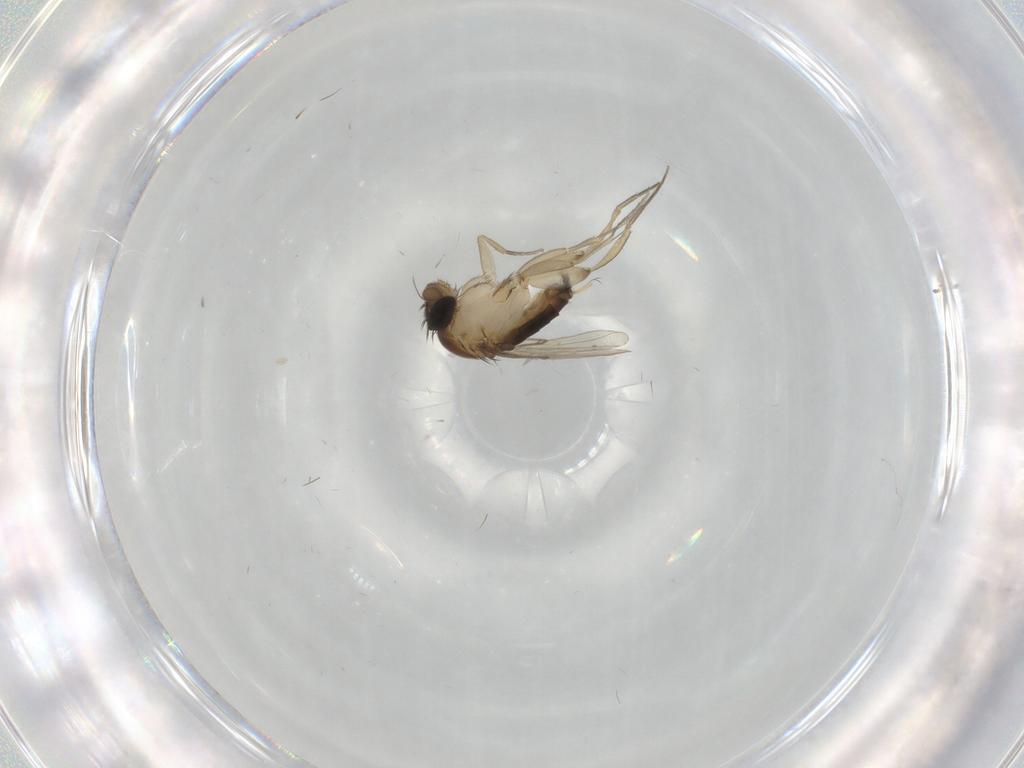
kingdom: Animalia
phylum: Arthropoda
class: Insecta
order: Diptera
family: Phoridae
